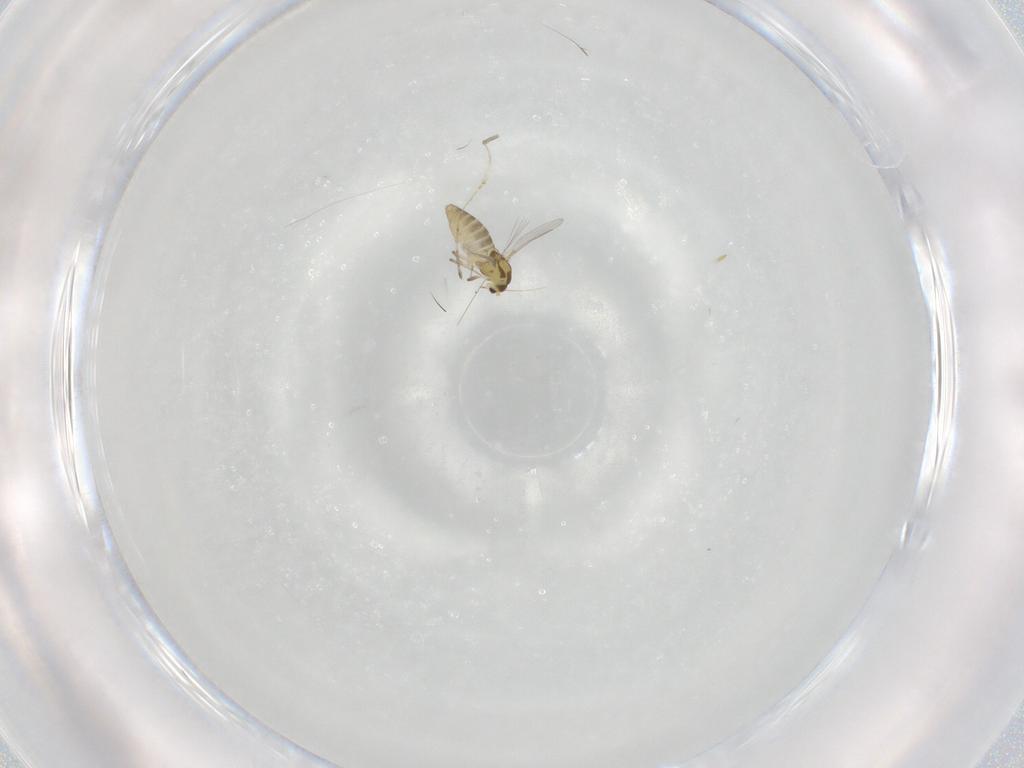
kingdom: Animalia
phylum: Arthropoda
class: Insecta
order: Diptera
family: Chironomidae
